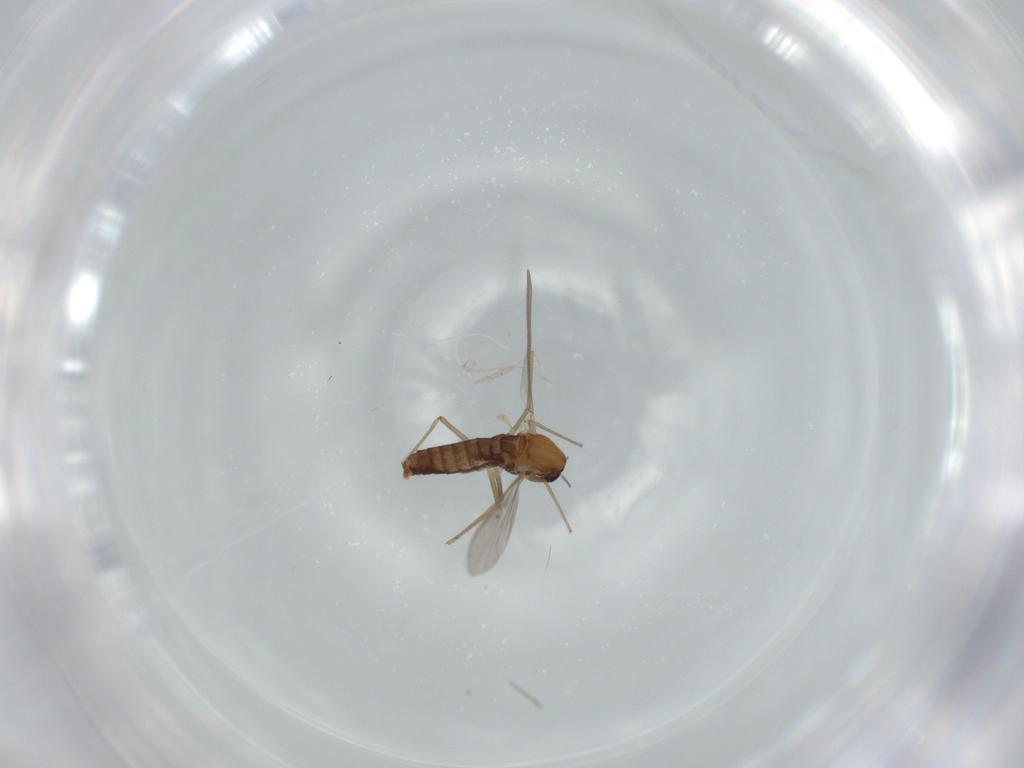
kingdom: Animalia
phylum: Arthropoda
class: Insecta
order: Diptera
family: Chironomidae
